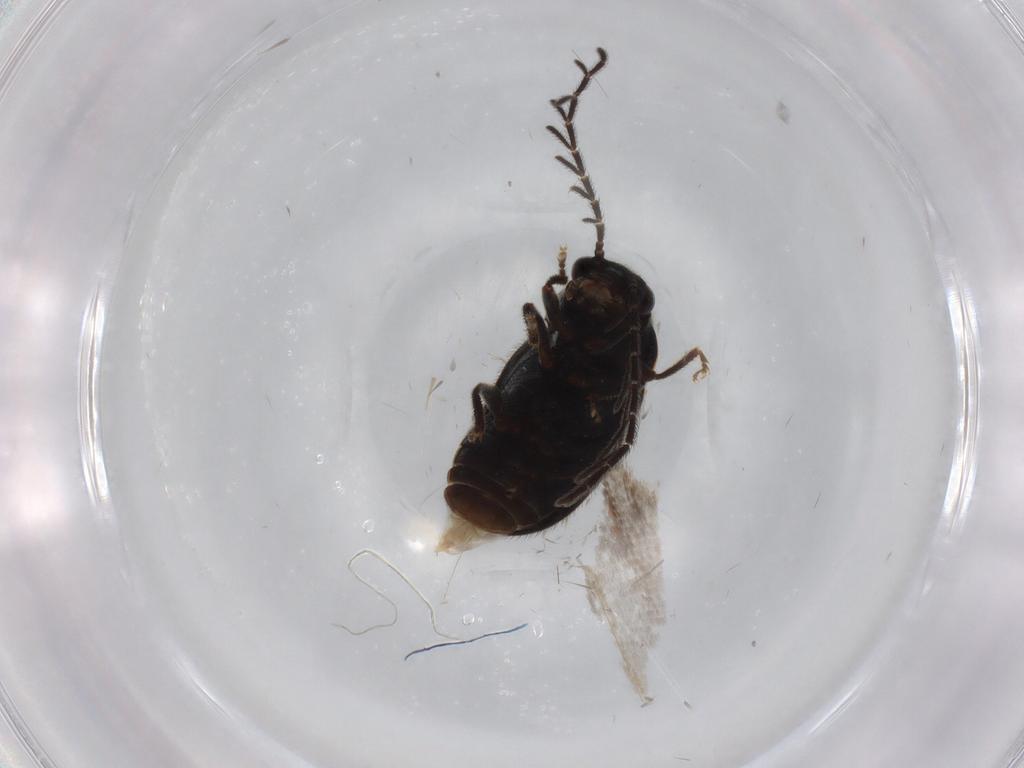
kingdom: Animalia
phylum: Arthropoda
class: Insecta
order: Coleoptera
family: Ptilodactylidae
